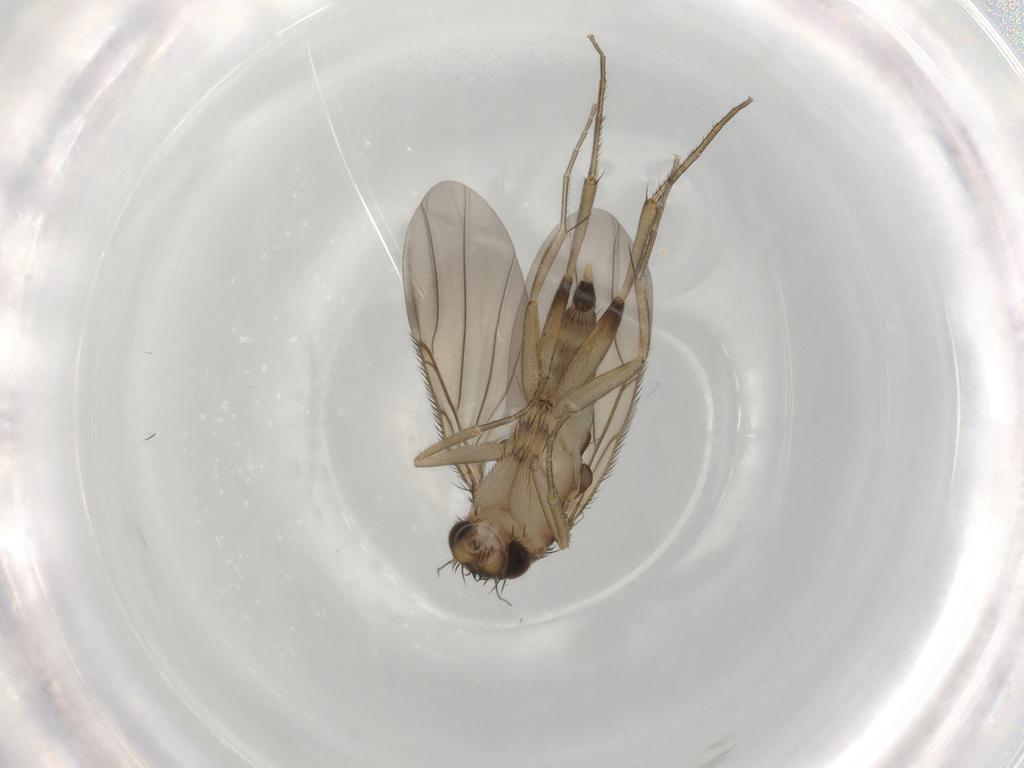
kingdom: Animalia
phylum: Arthropoda
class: Insecta
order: Diptera
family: Phoridae
